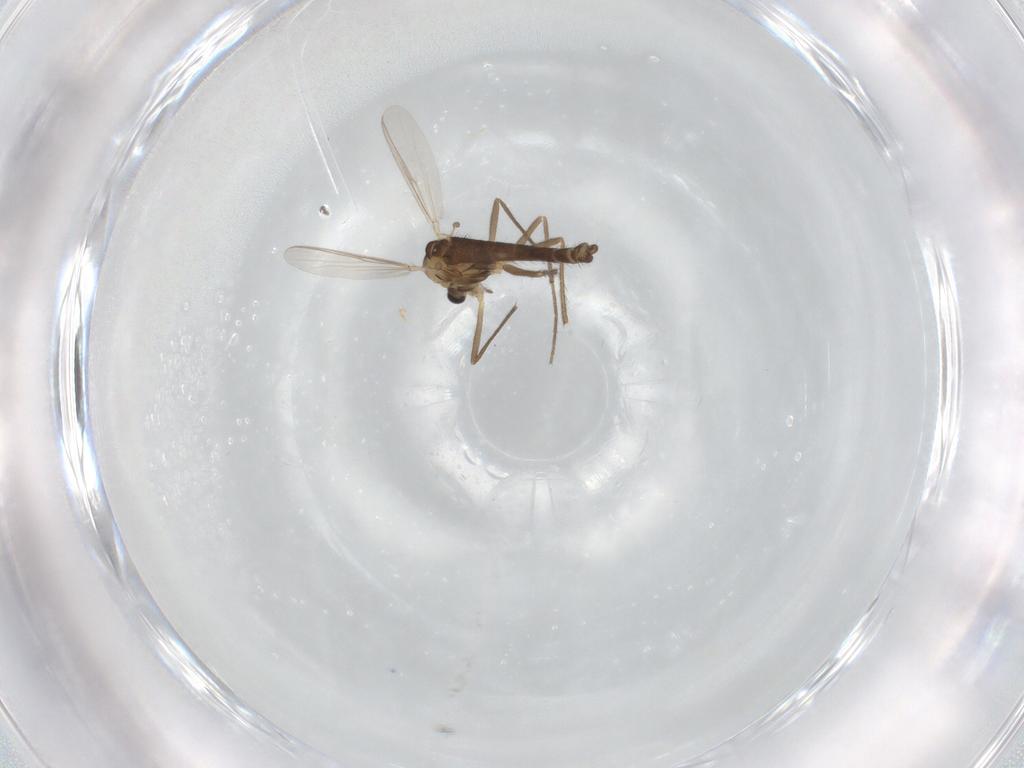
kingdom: Animalia
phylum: Arthropoda
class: Insecta
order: Diptera
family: Chironomidae
